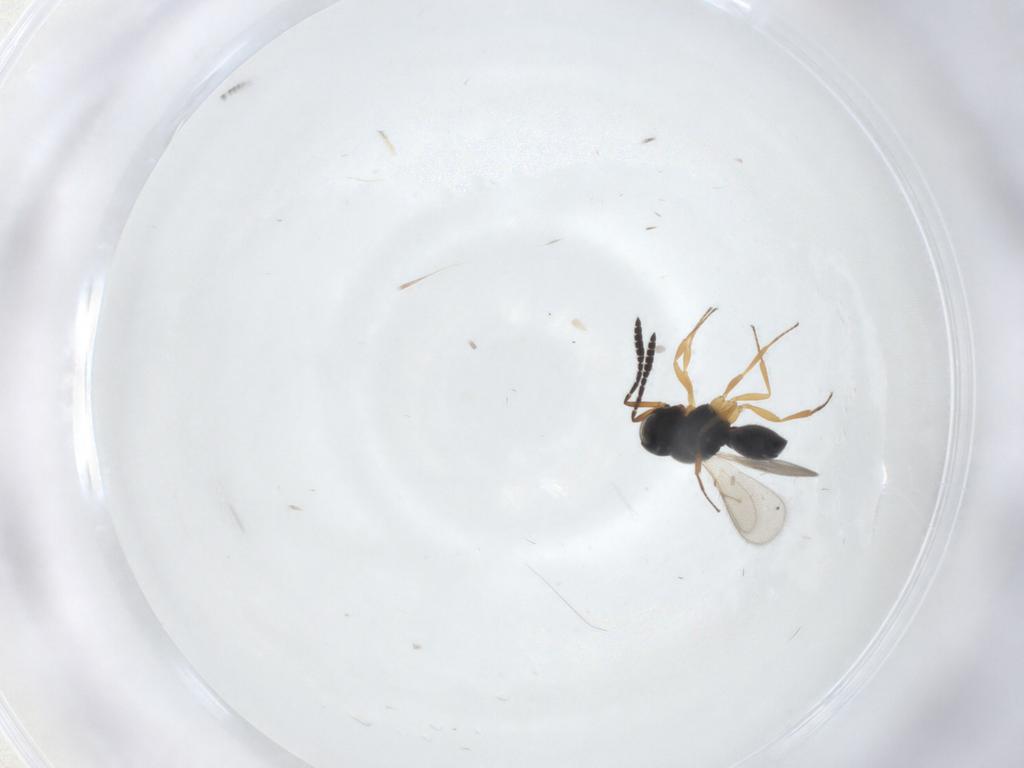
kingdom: Animalia
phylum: Arthropoda
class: Insecta
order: Hymenoptera
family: Scelionidae
